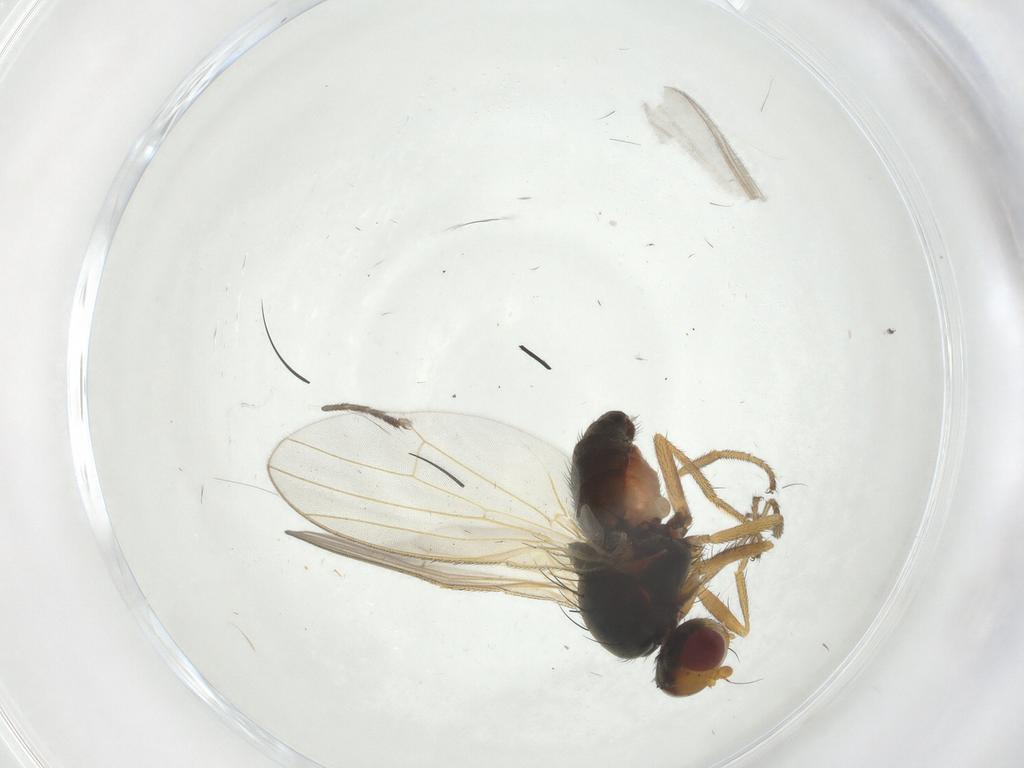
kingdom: Animalia
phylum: Arthropoda
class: Insecta
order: Diptera
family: Heleomyzidae
